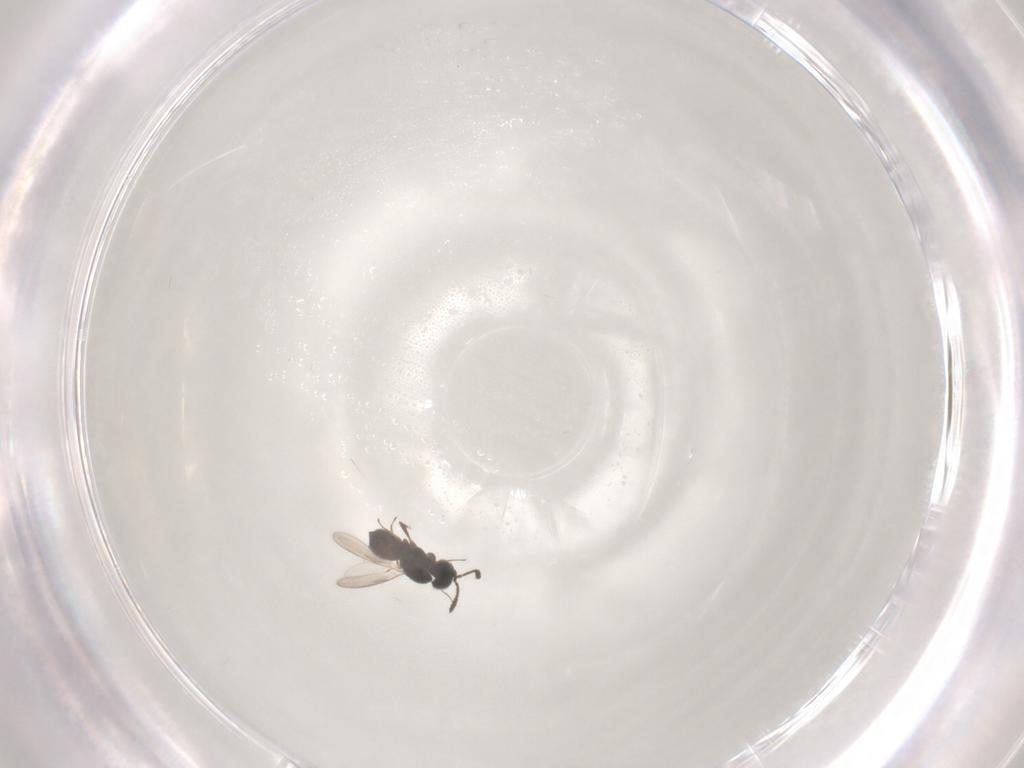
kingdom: Animalia
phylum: Arthropoda
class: Insecta
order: Hymenoptera
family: Scelionidae
